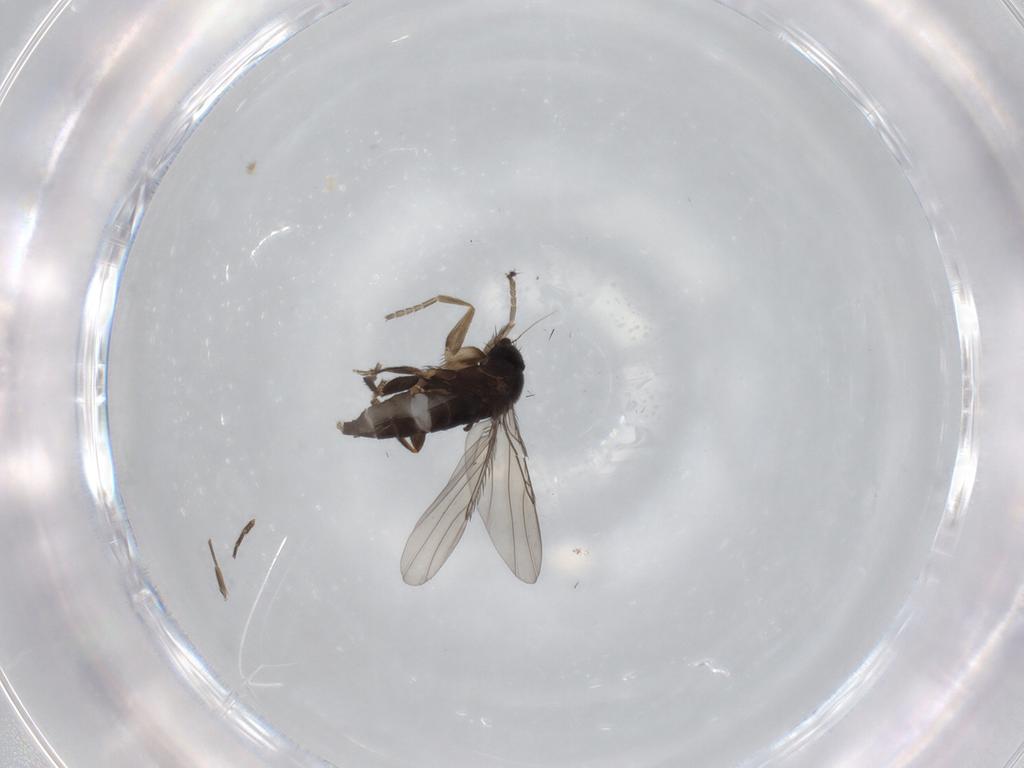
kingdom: Animalia
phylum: Arthropoda
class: Insecta
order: Diptera
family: Phoridae
